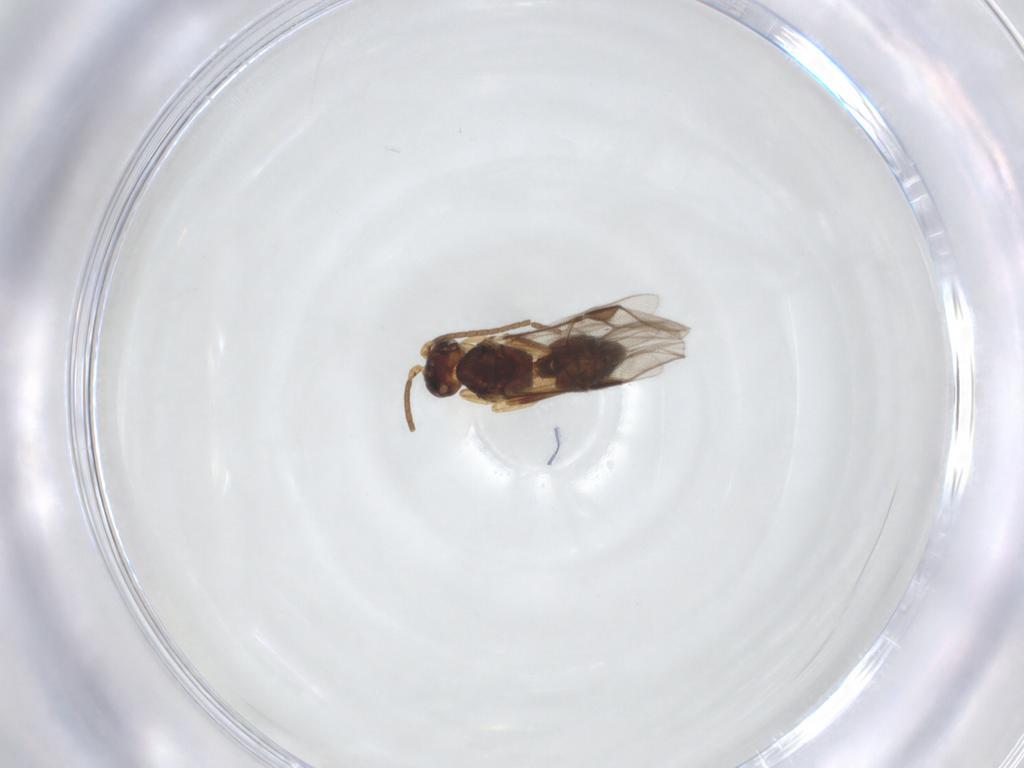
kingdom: Animalia
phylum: Arthropoda
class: Insecta
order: Hymenoptera
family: Braconidae
